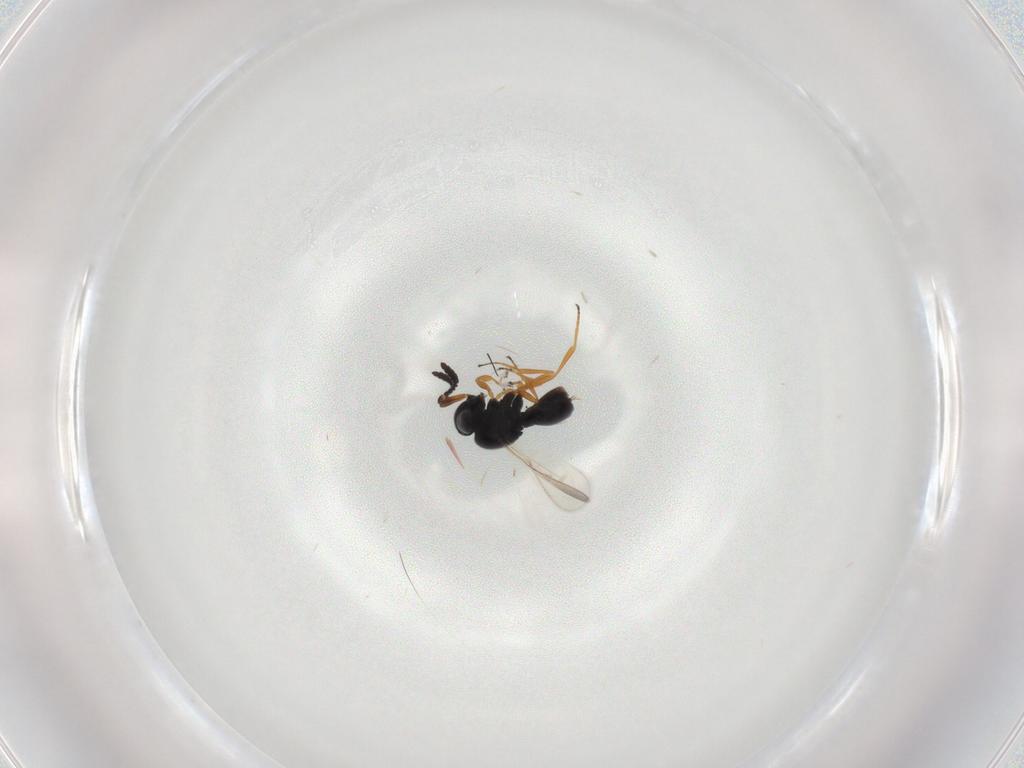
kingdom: Animalia
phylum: Arthropoda
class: Insecta
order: Hymenoptera
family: Scelionidae
